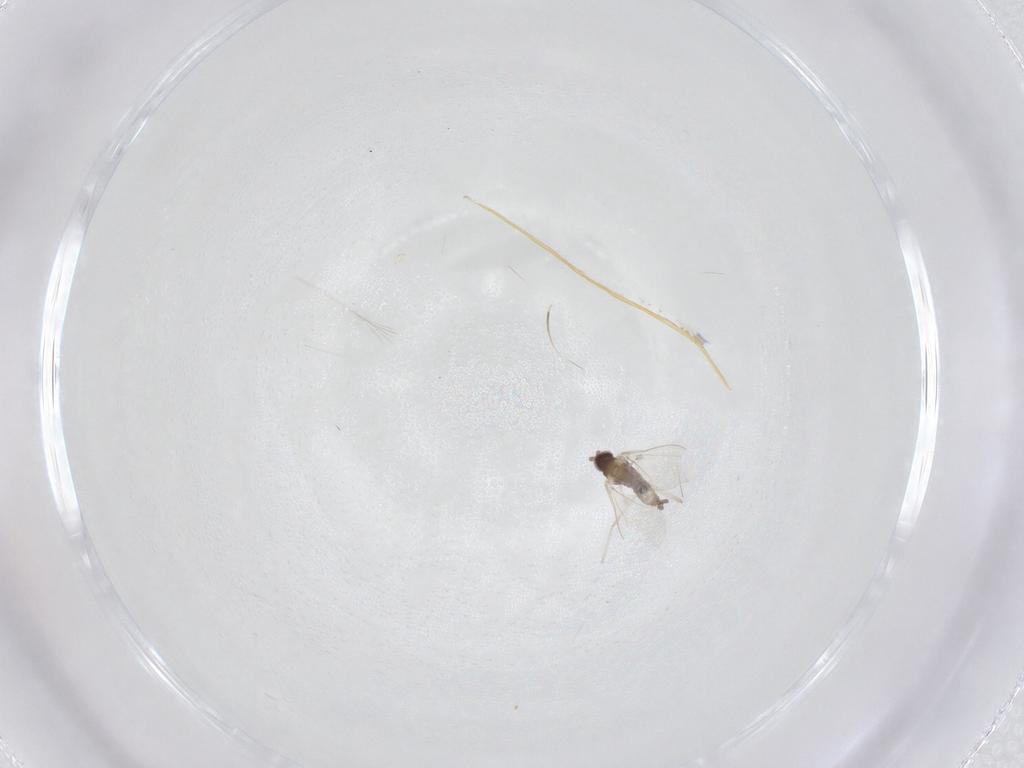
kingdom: Animalia
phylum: Arthropoda
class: Insecta
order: Diptera
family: Cecidomyiidae
